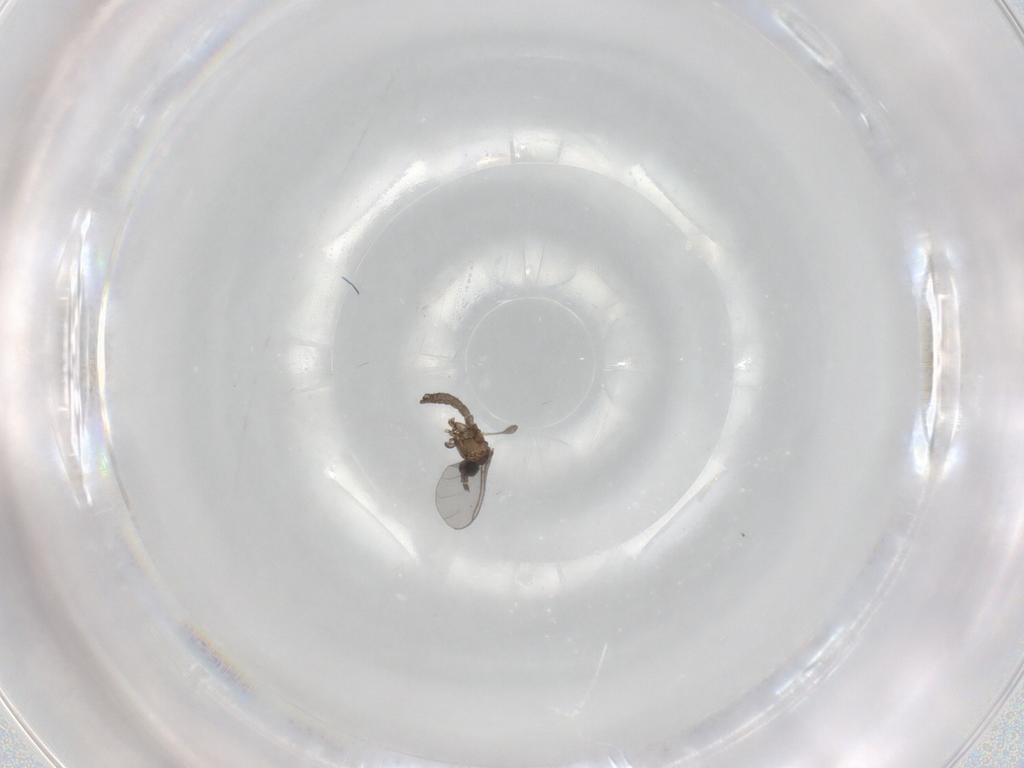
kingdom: Animalia
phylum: Arthropoda
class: Insecta
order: Diptera
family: Sciaridae
